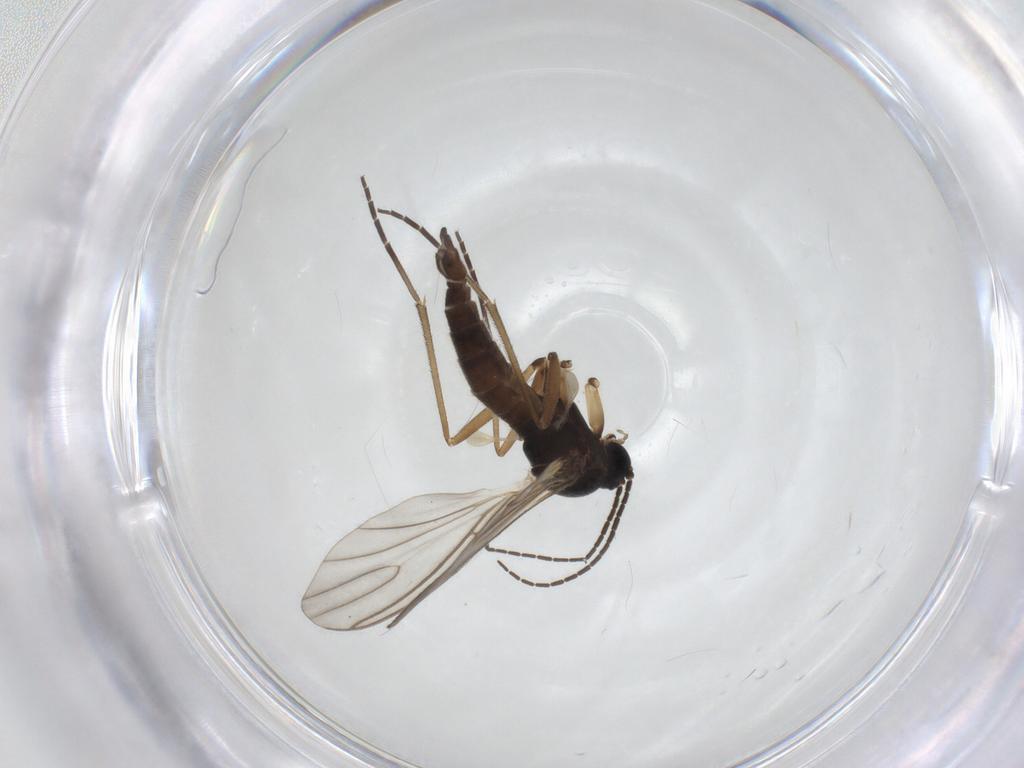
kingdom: Animalia
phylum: Arthropoda
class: Insecta
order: Diptera
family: Sciaridae
